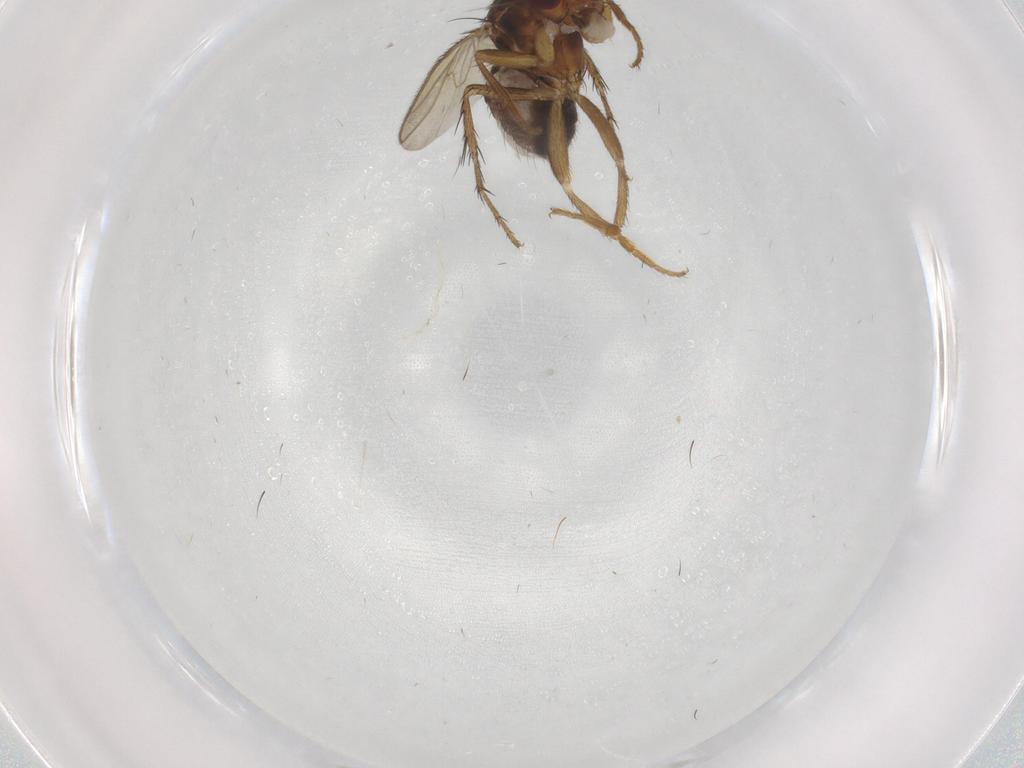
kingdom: Animalia
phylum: Arthropoda
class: Insecta
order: Diptera
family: Sphaeroceridae
